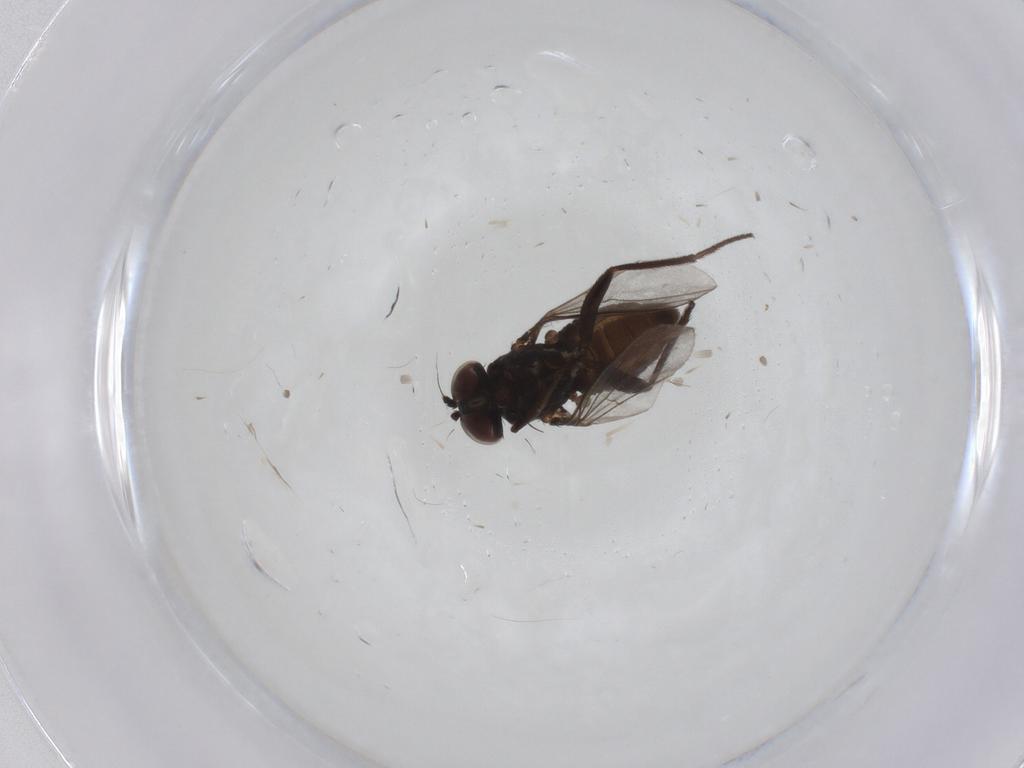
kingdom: Animalia
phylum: Arthropoda
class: Insecta
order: Diptera
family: Dolichopodidae
